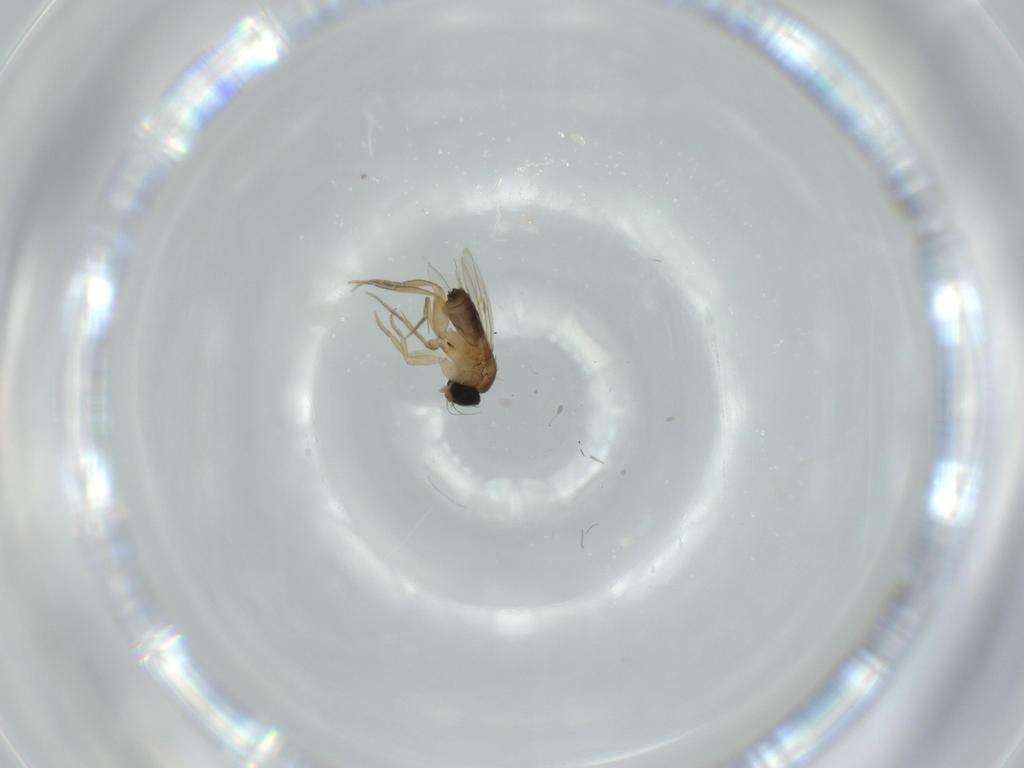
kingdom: Animalia
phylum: Arthropoda
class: Insecta
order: Diptera
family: Phoridae
